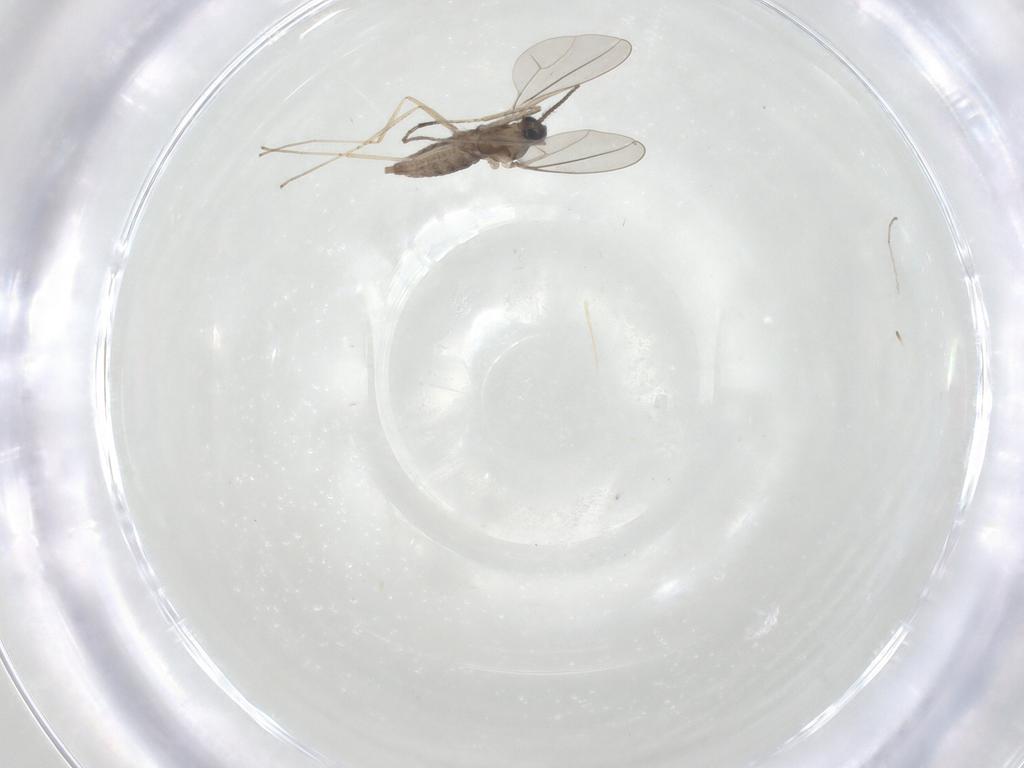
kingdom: Animalia
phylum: Arthropoda
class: Insecta
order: Diptera
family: Cecidomyiidae
